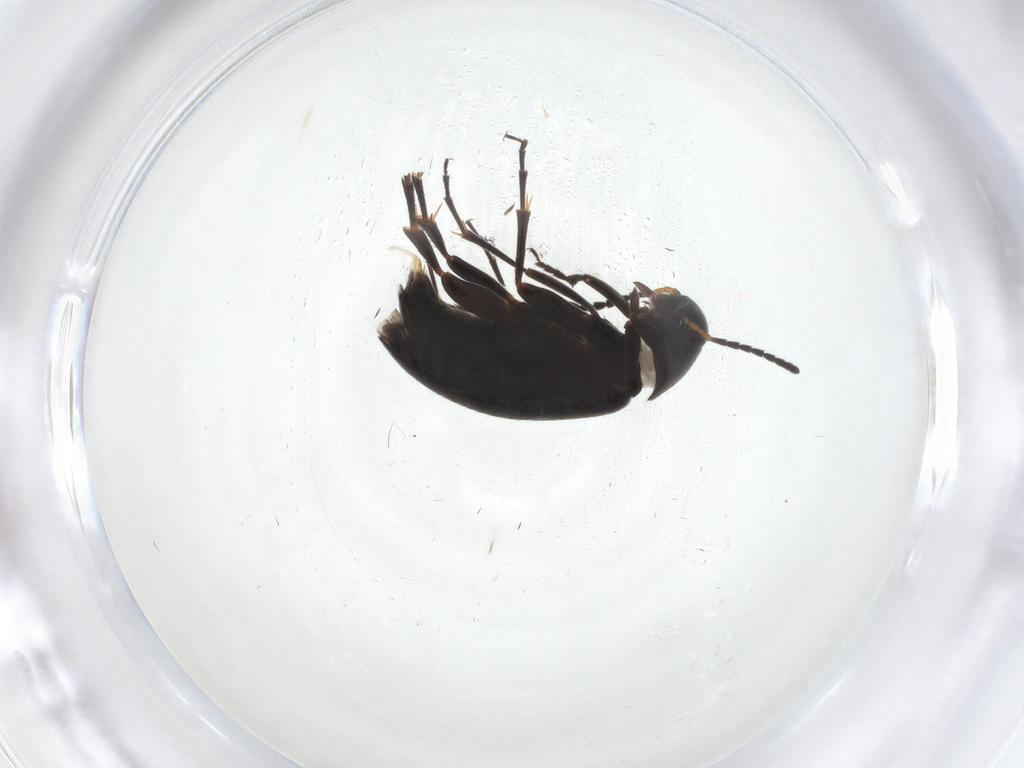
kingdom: Animalia
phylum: Arthropoda
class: Insecta
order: Coleoptera
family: Scraptiidae
